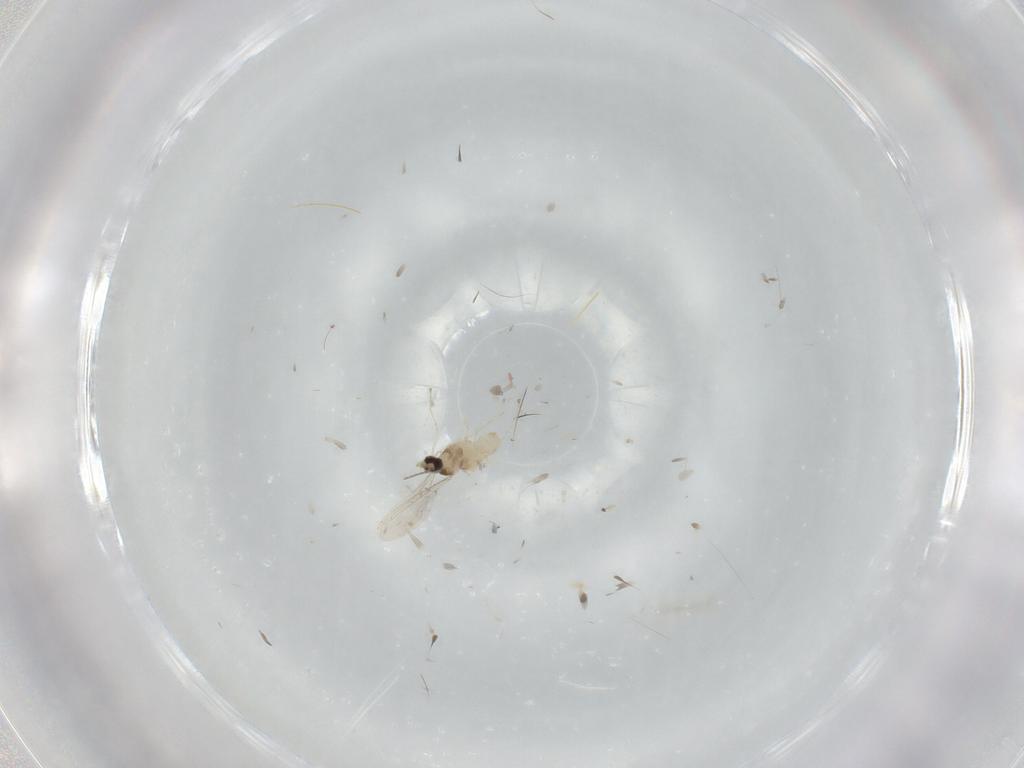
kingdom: Animalia
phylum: Arthropoda
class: Insecta
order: Diptera
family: Cecidomyiidae
